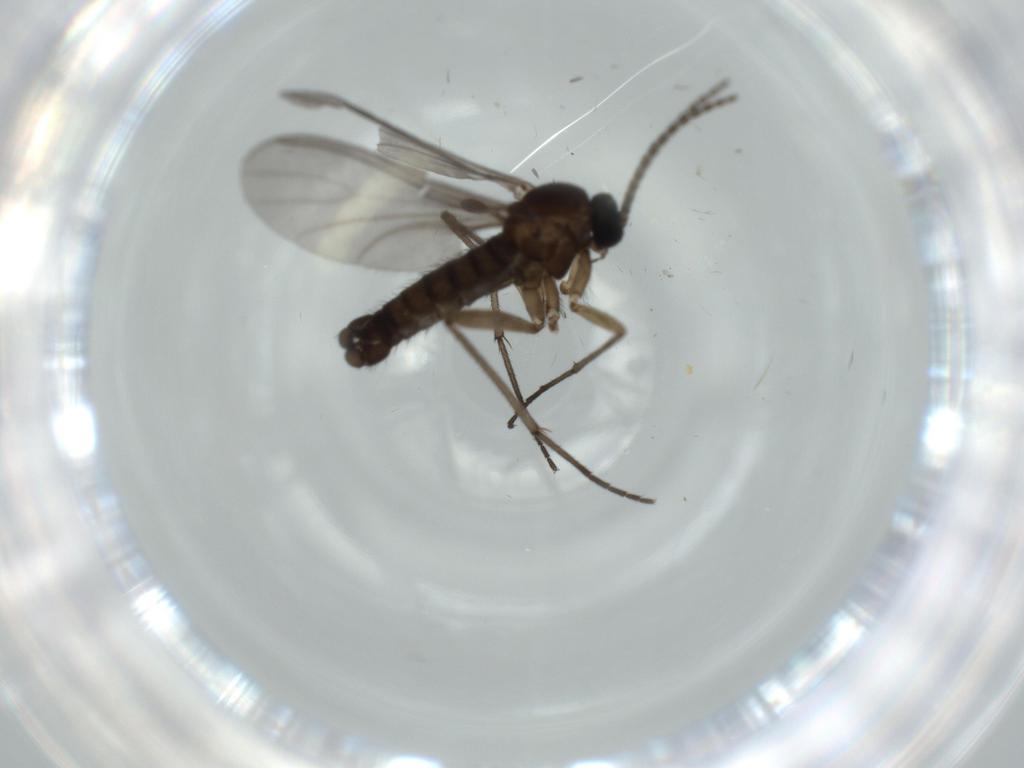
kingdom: Animalia
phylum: Arthropoda
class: Insecta
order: Diptera
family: Sciaridae
